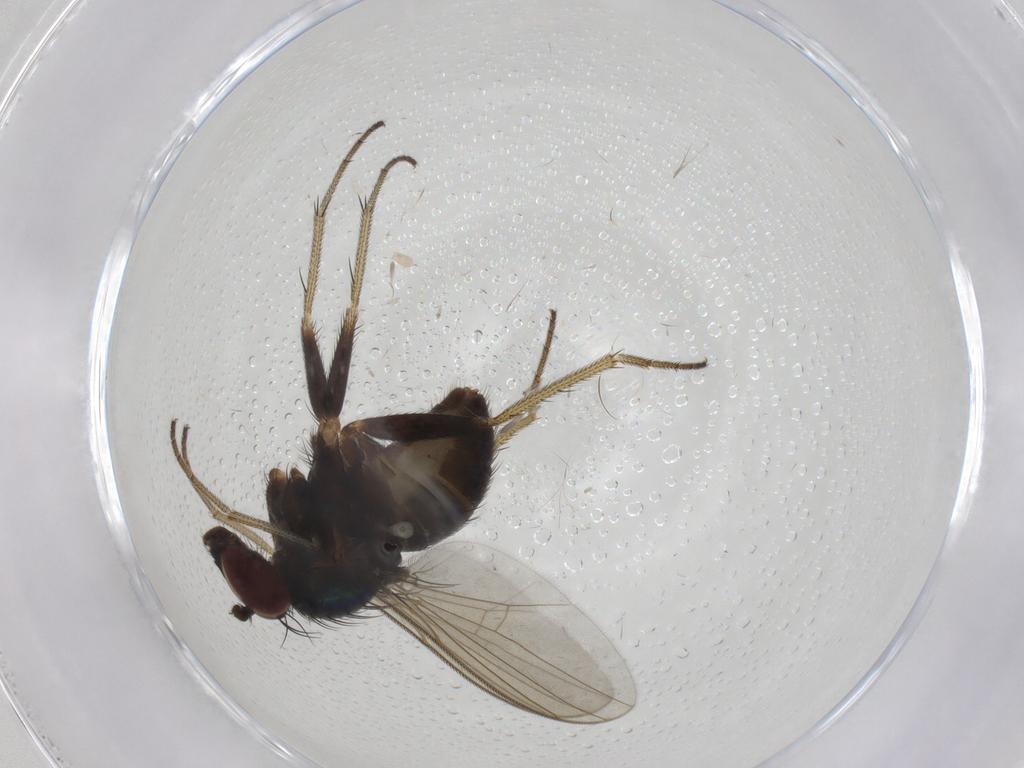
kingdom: Animalia
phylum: Arthropoda
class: Insecta
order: Diptera
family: Dolichopodidae
